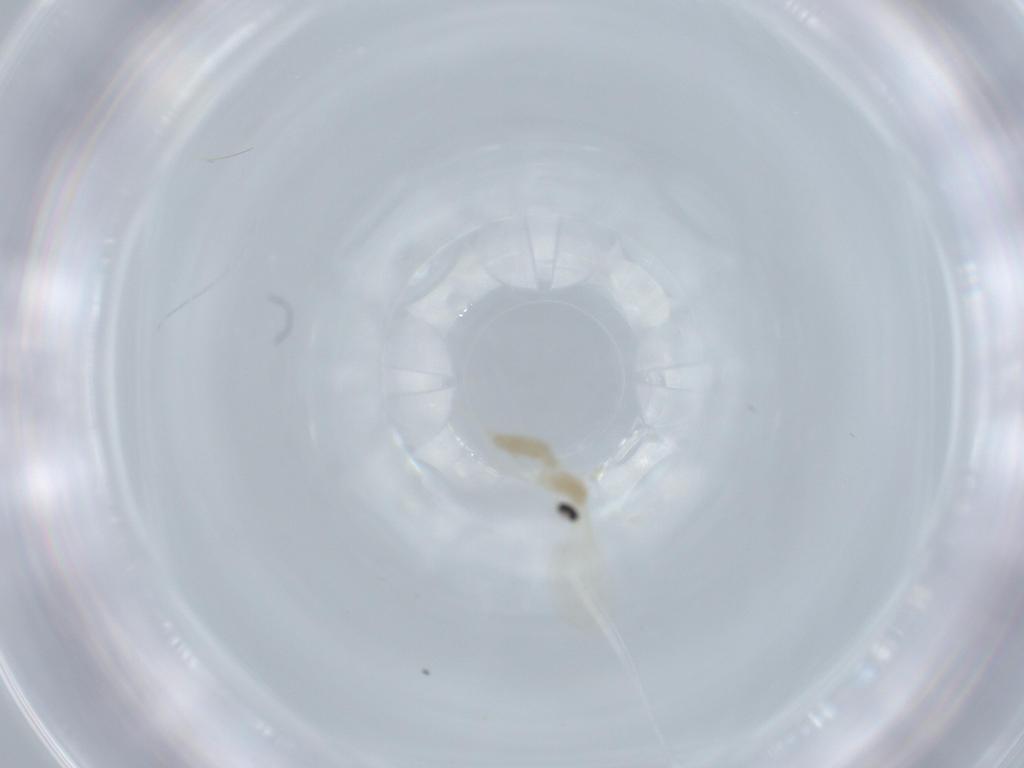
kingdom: Animalia
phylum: Arthropoda
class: Insecta
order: Diptera
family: Cecidomyiidae
